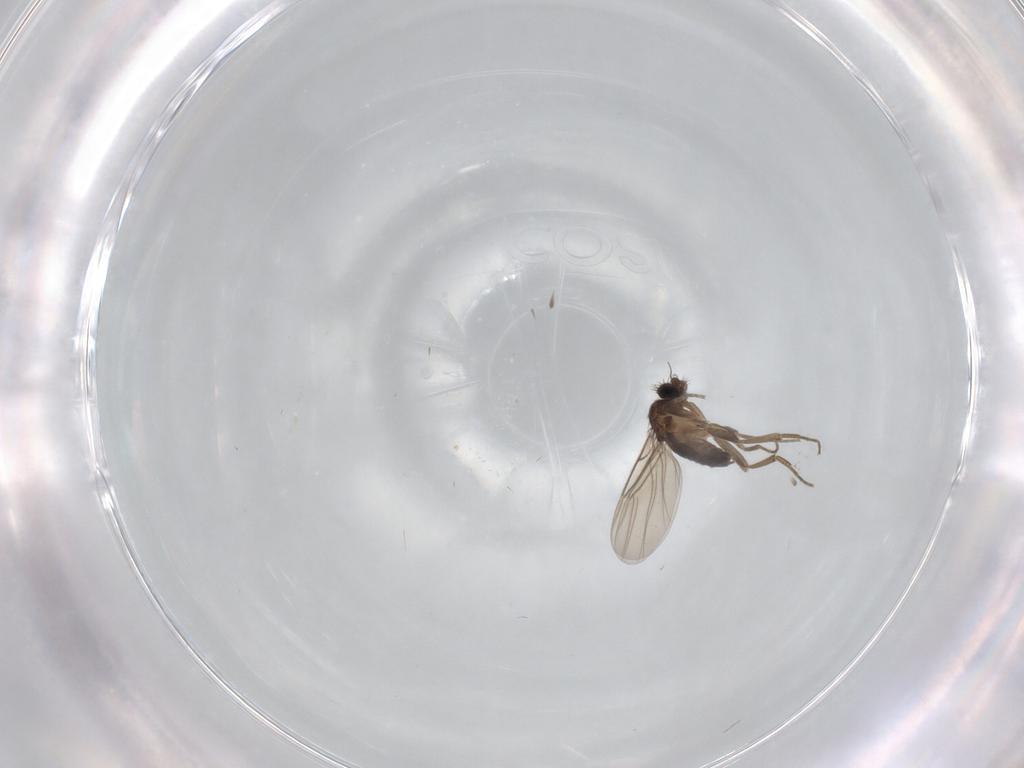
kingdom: Animalia
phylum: Arthropoda
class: Insecta
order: Diptera
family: Phoridae
